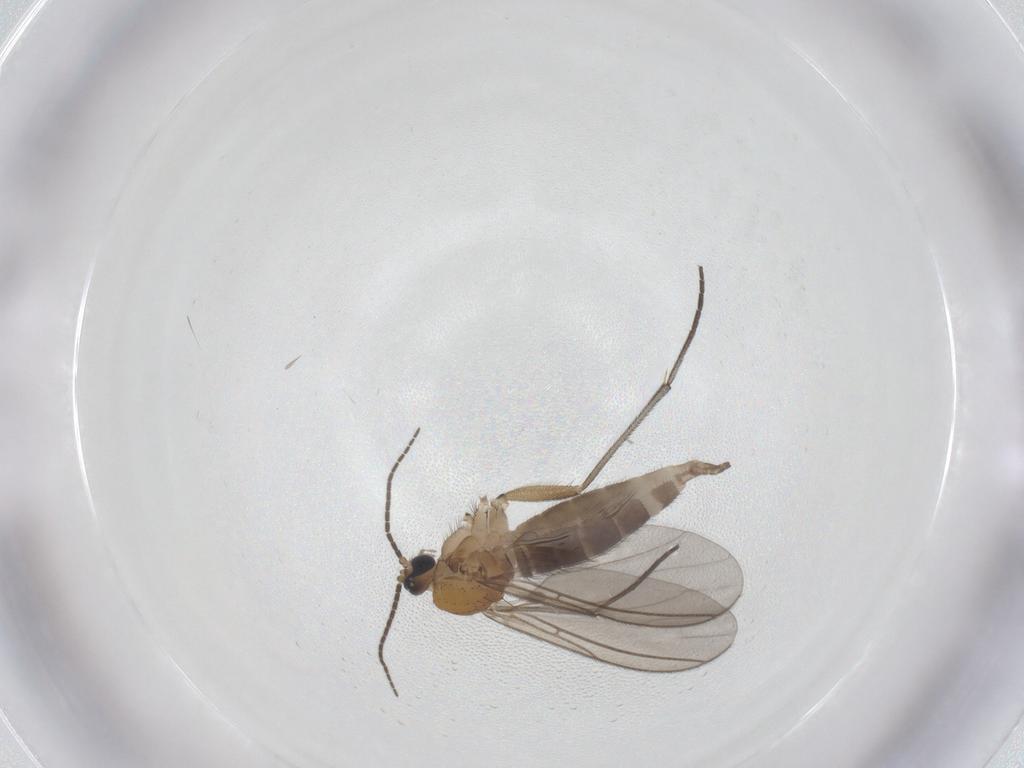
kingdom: Animalia
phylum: Arthropoda
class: Insecta
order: Diptera
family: Sciaridae
